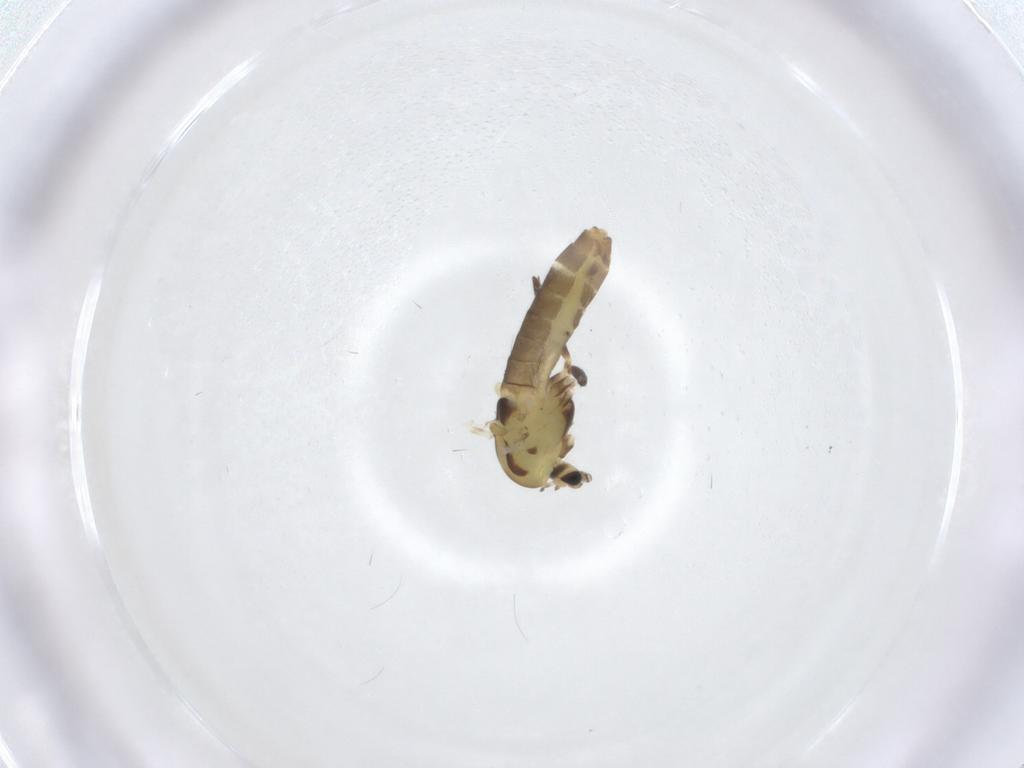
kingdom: Animalia
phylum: Arthropoda
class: Insecta
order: Diptera
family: Chironomidae
